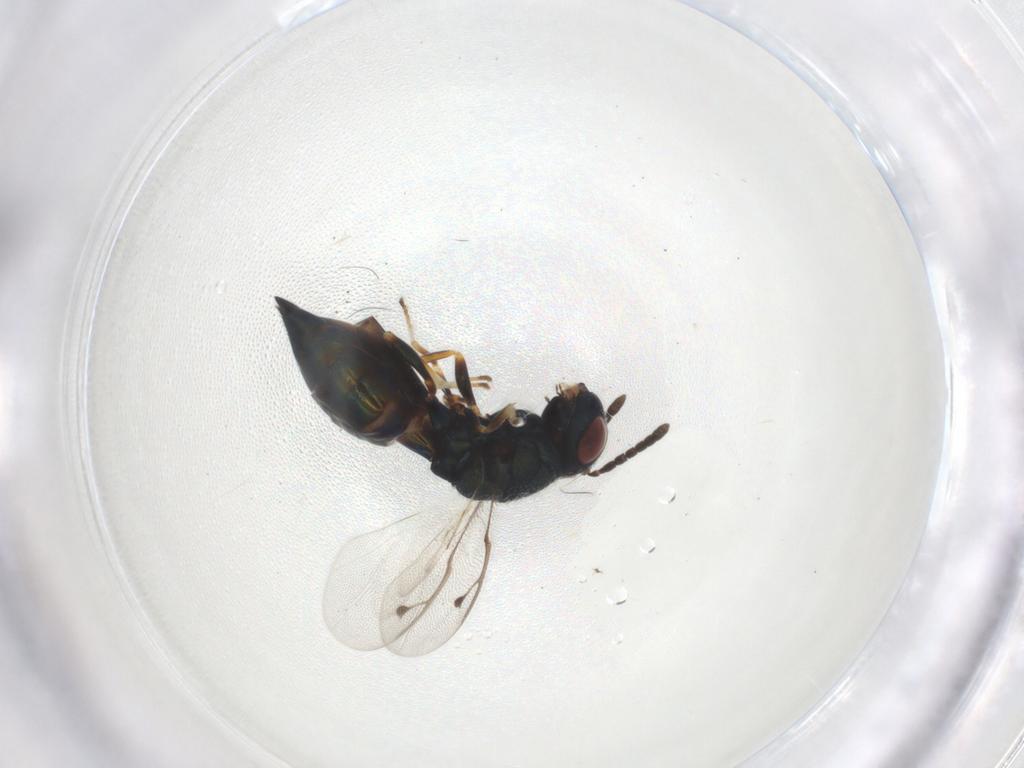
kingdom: Animalia
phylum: Arthropoda
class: Insecta
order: Hymenoptera
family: Pteromalidae
